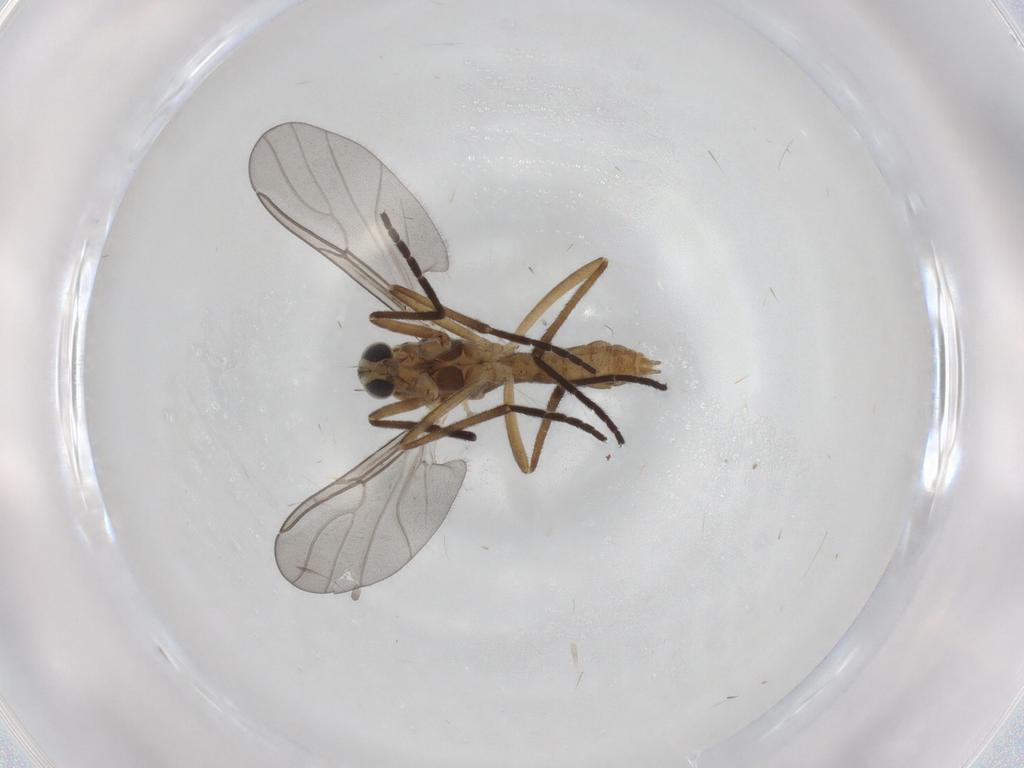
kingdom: Animalia
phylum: Arthropoda
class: Insecta
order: Diptera
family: Cecidomyiidae
